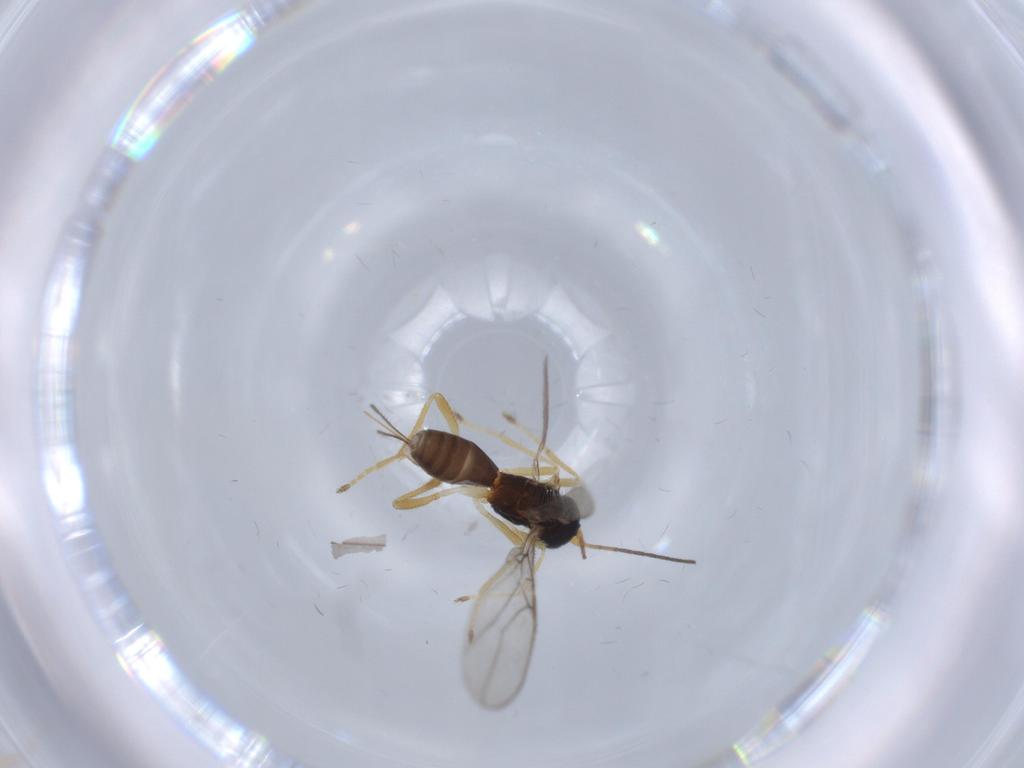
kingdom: Animalia
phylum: Arthropoda
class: Insecta
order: Hymenoptera
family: Braconidae
